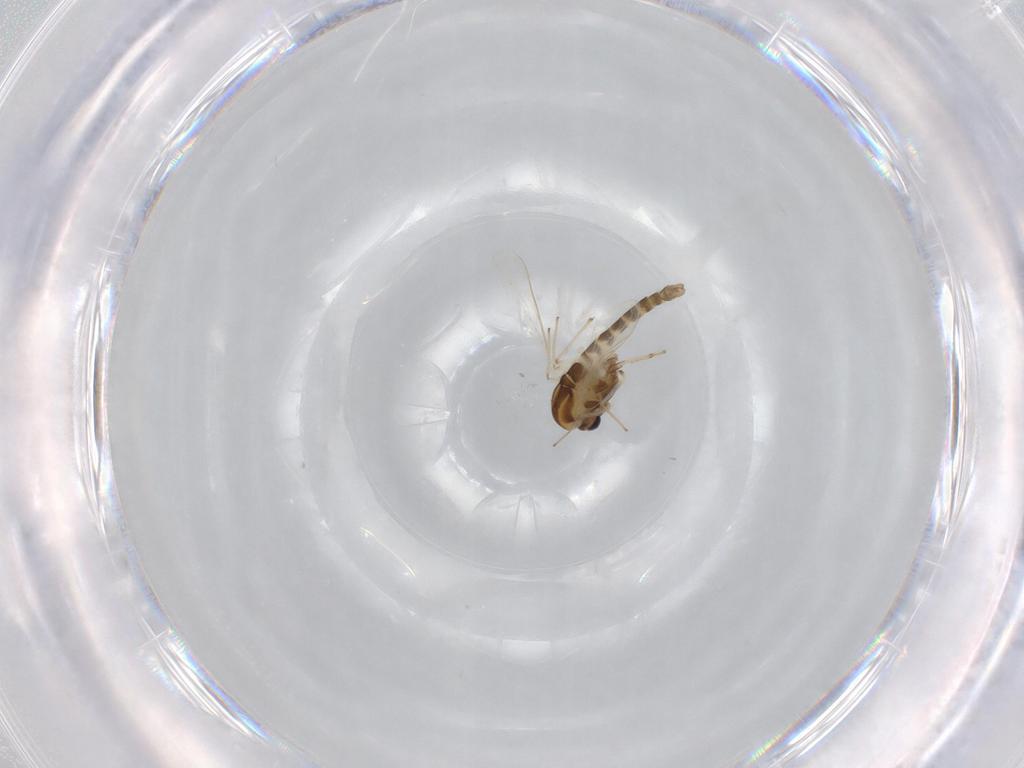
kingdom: Animalia
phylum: Arthropoda
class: Insecta
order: Diptera
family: Chironomidae
